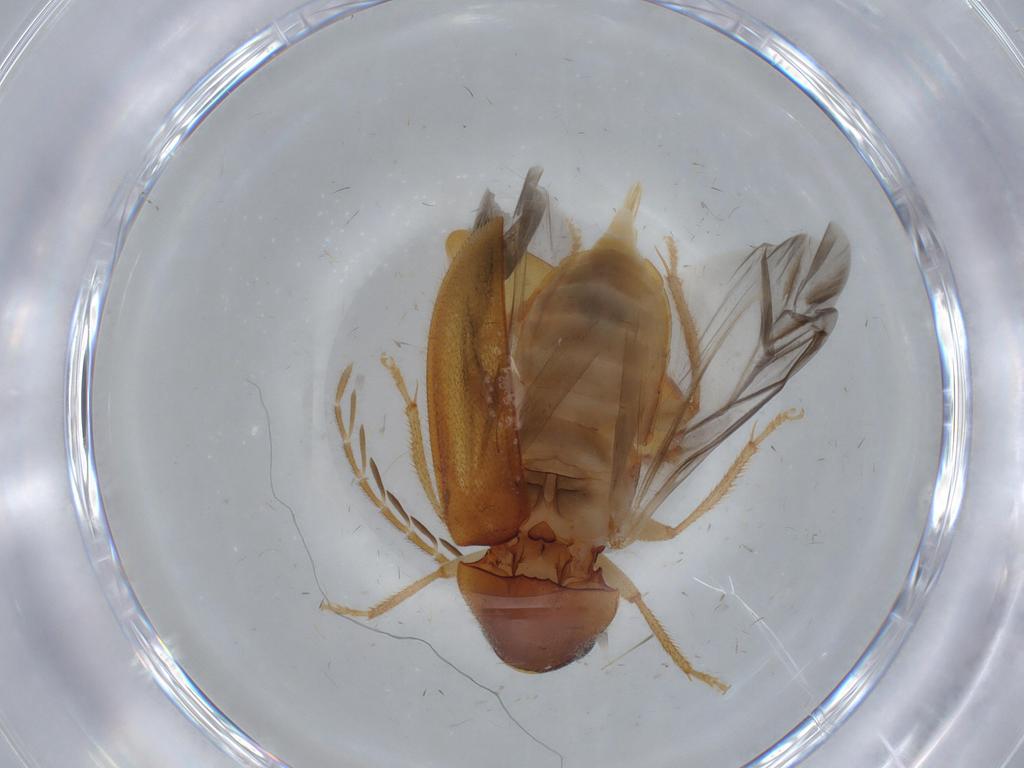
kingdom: Animalia
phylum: Arthropoda
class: Insecta
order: Coleoptera
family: Ptilodactylidae
